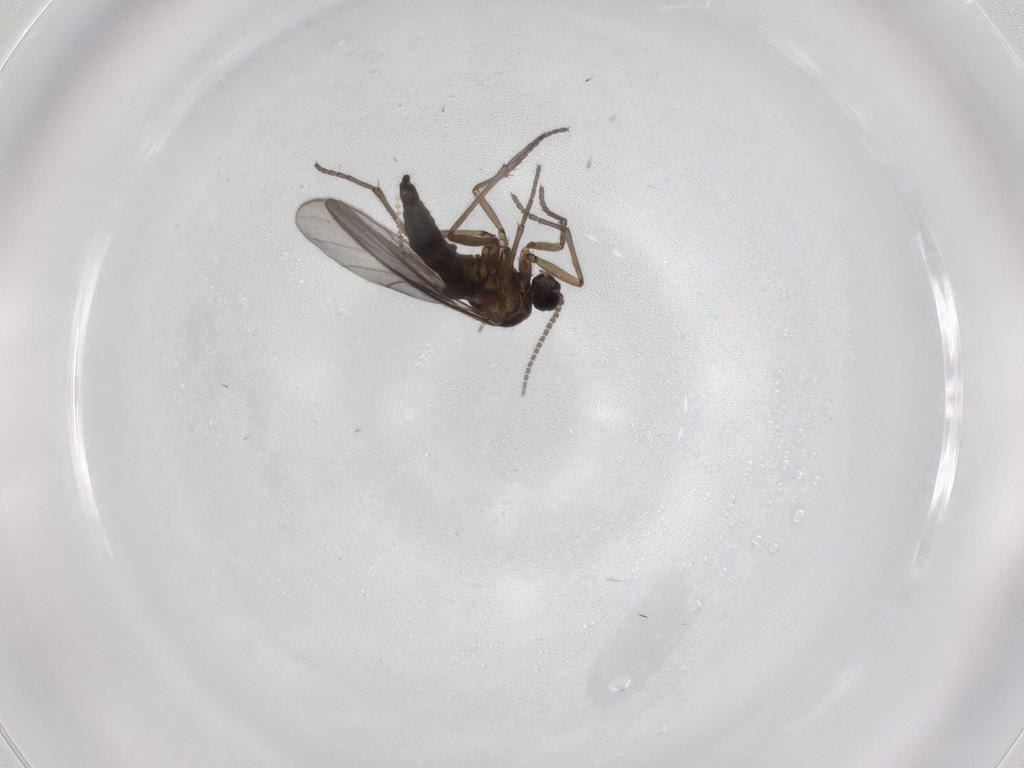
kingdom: Animalia
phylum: Arthropoda
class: Insecta
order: Diptera
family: Sciaridae
